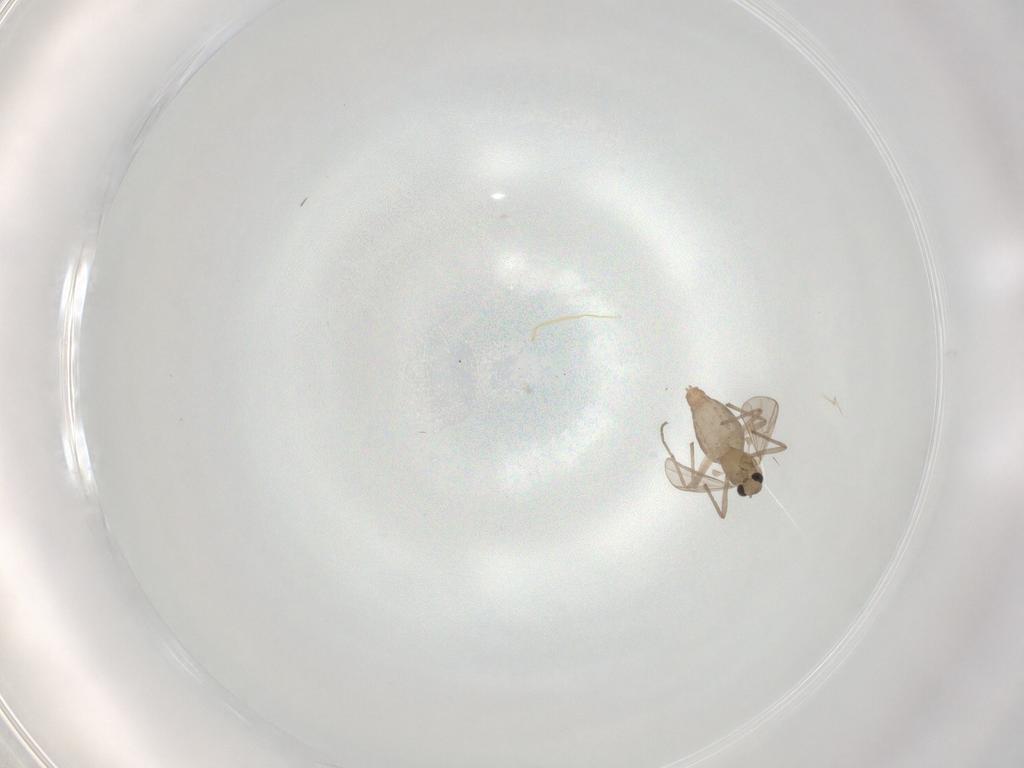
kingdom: Animalia
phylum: Arthropoda
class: Insecta
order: Diptera
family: Chironomidae
